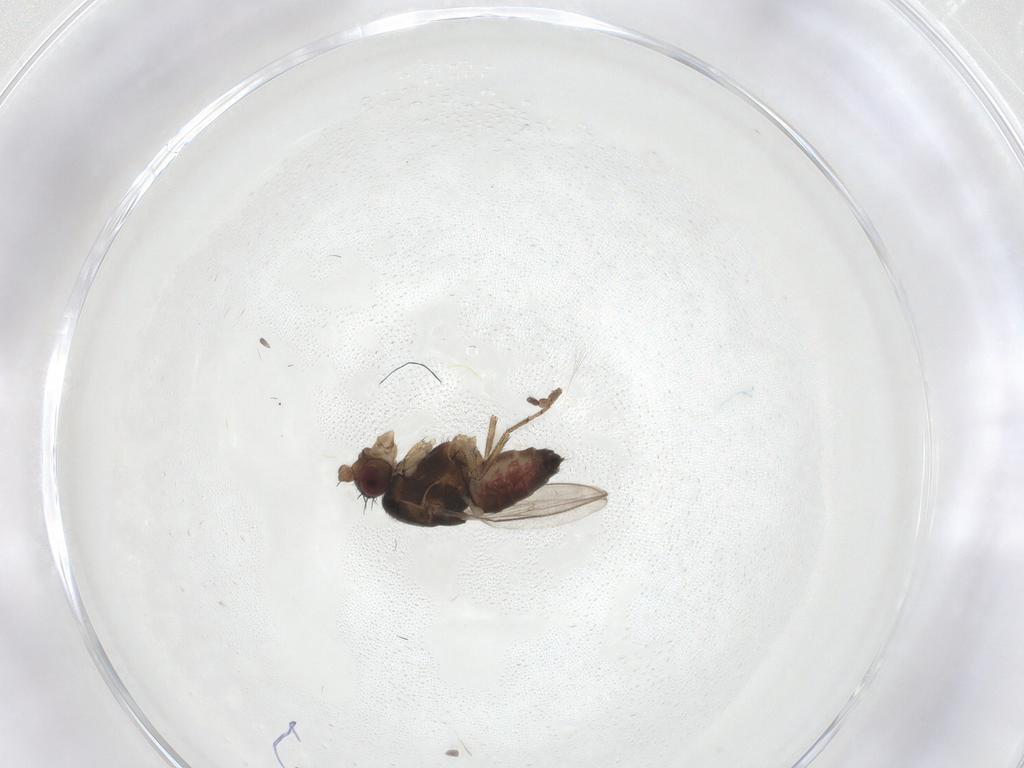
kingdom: Animalia
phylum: Arthropoda
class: Insecta
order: Diptera
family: Limoniidae
